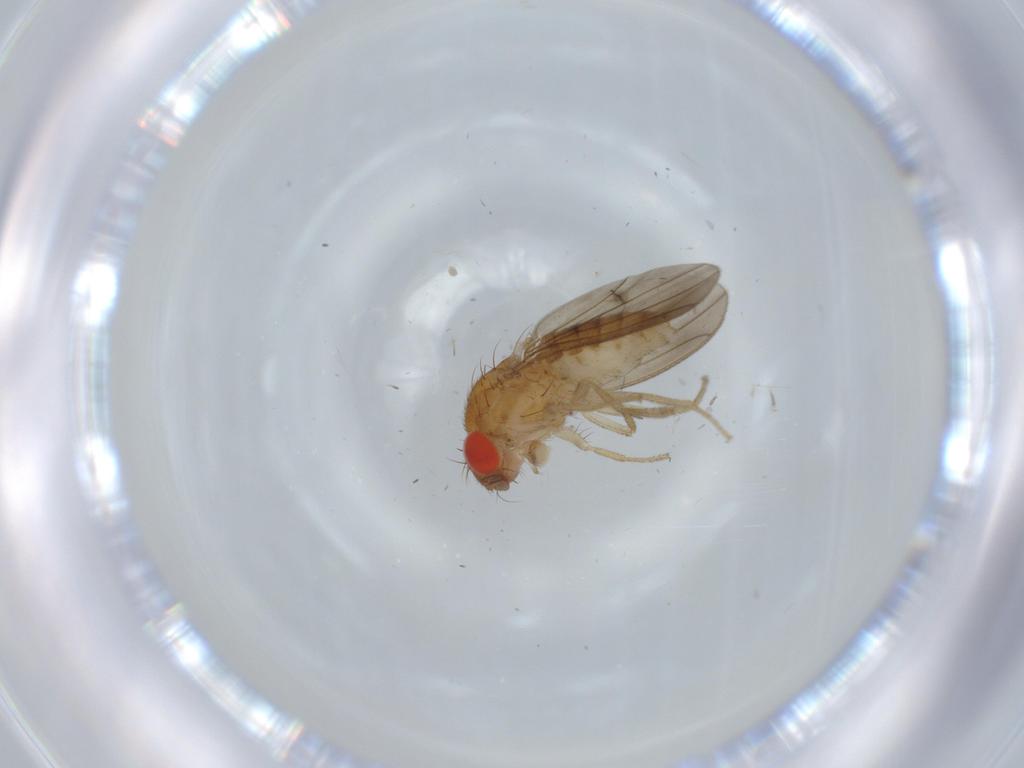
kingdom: Animalia
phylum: Arthropoda
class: Insecta
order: Diptera
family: Drosophilidae
